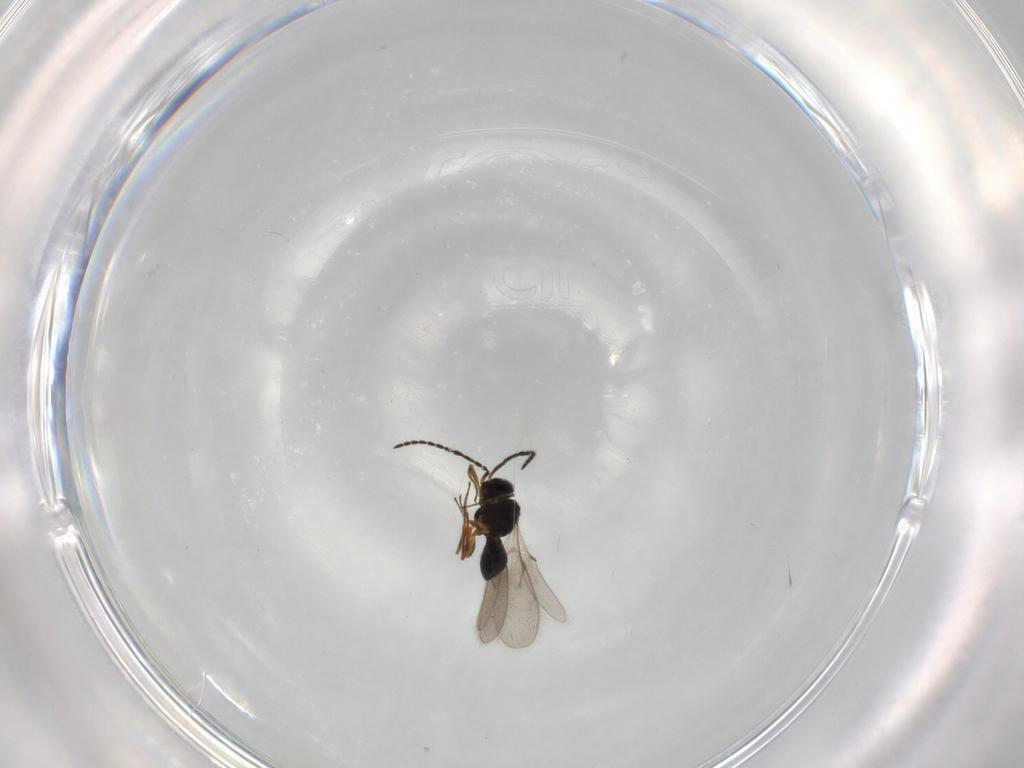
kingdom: Animalia
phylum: Arthropoda
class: Insecta
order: Hymenoptera
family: Scelionidae
